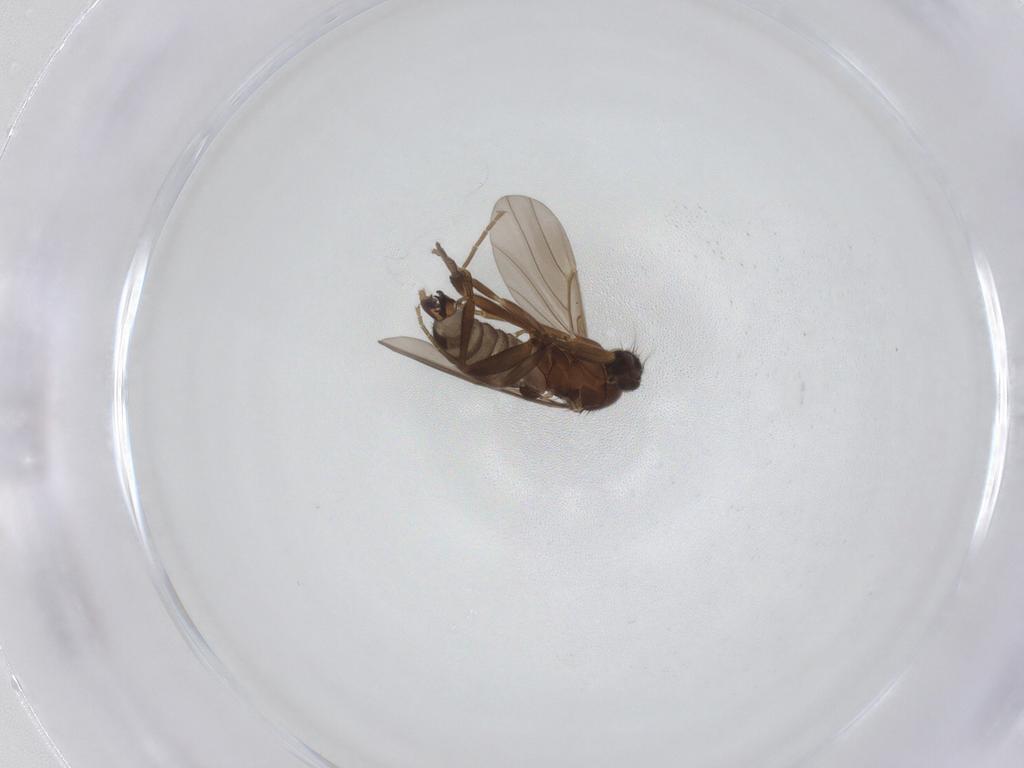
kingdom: Animalia
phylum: Arthropoda
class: Insecta
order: Diptera
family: Phoridae
